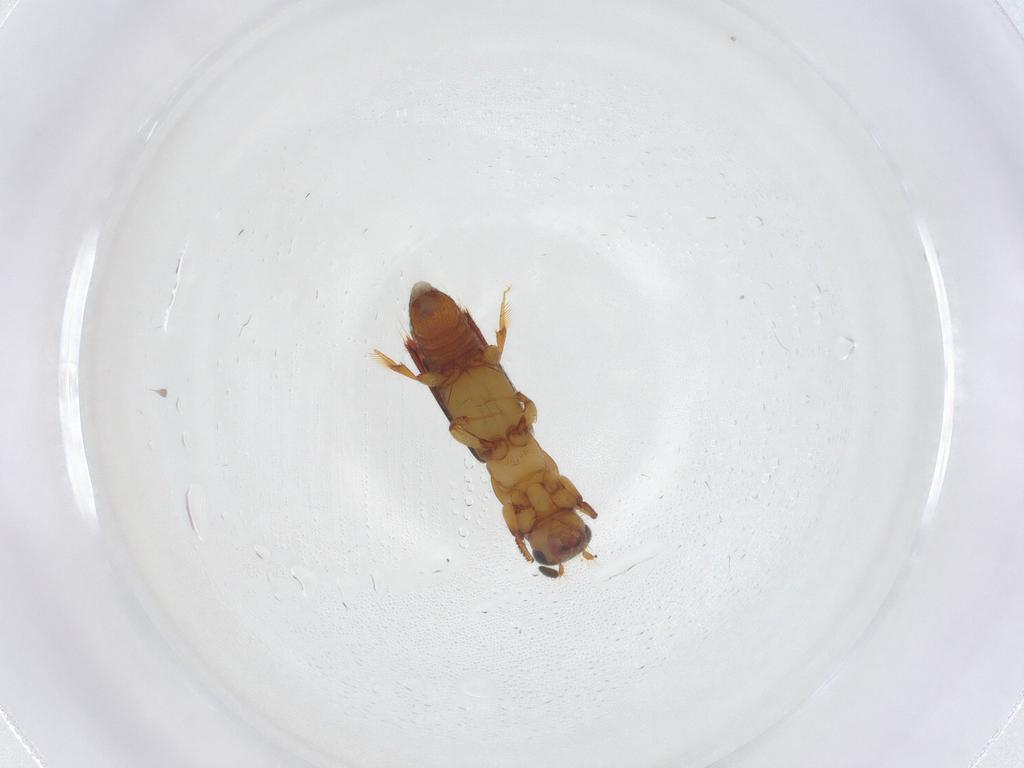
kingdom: Animalia
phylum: Arthropoda
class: Insecta
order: Coleoptera
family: Curculionidae
